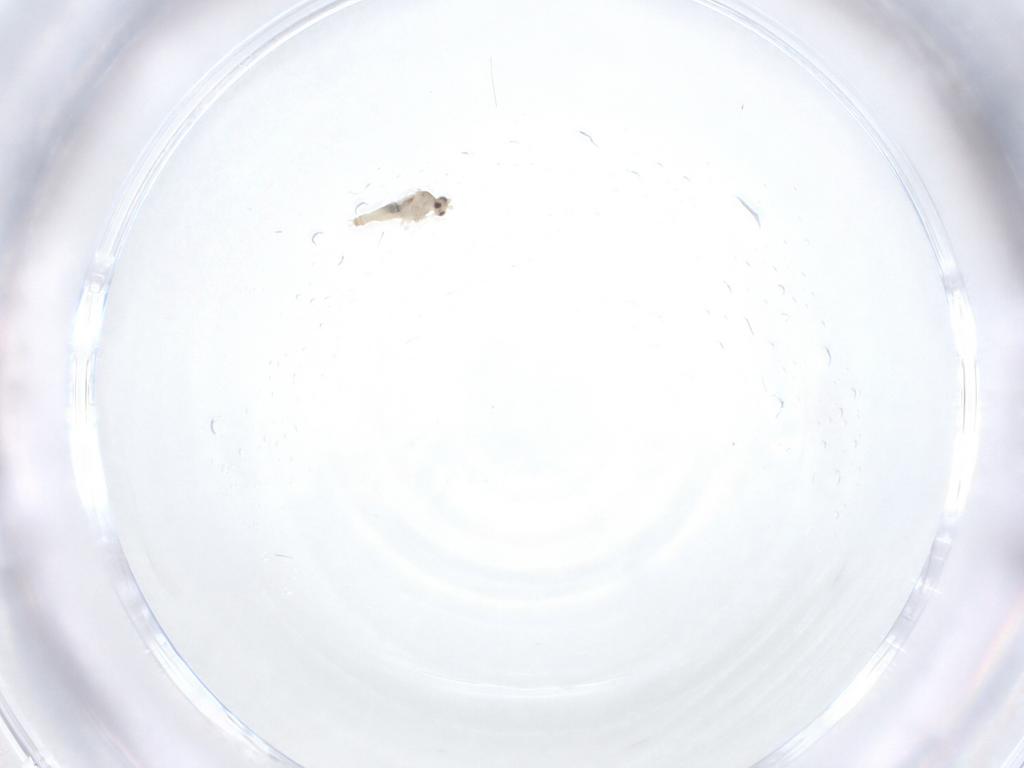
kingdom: Animalia
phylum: Arthropoda
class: Insecta
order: Diptera
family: Cecidomyiidae
